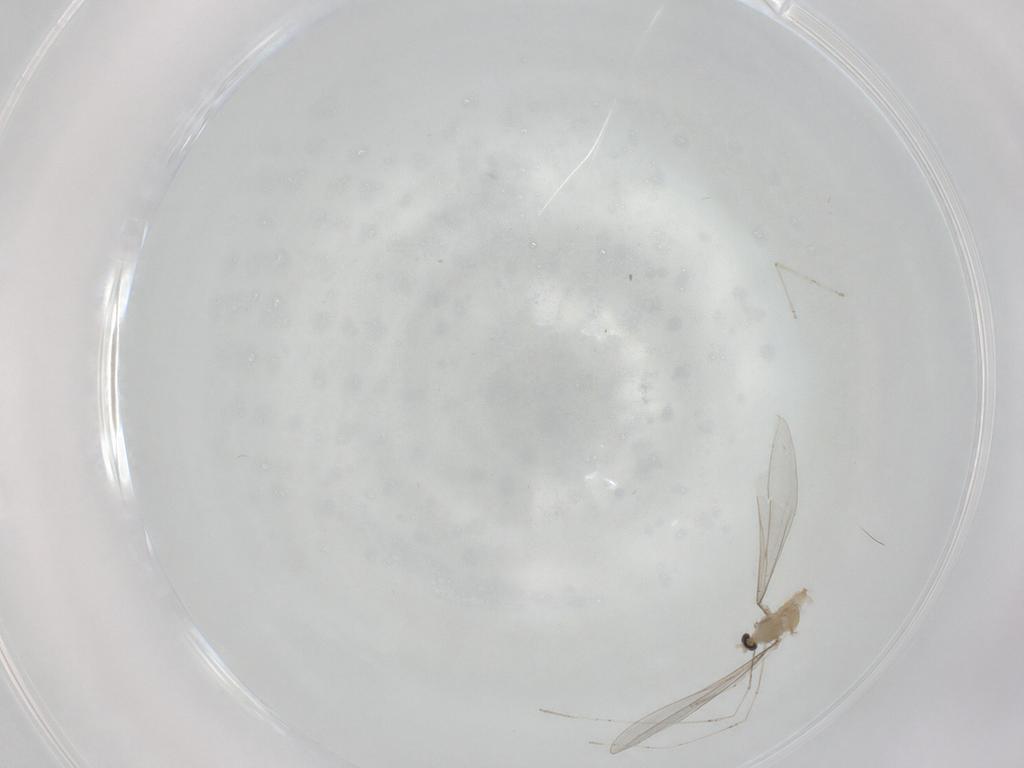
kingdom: Animalia
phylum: Arthropoda
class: Insecta
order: Diptera
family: Cecidomyiidae
